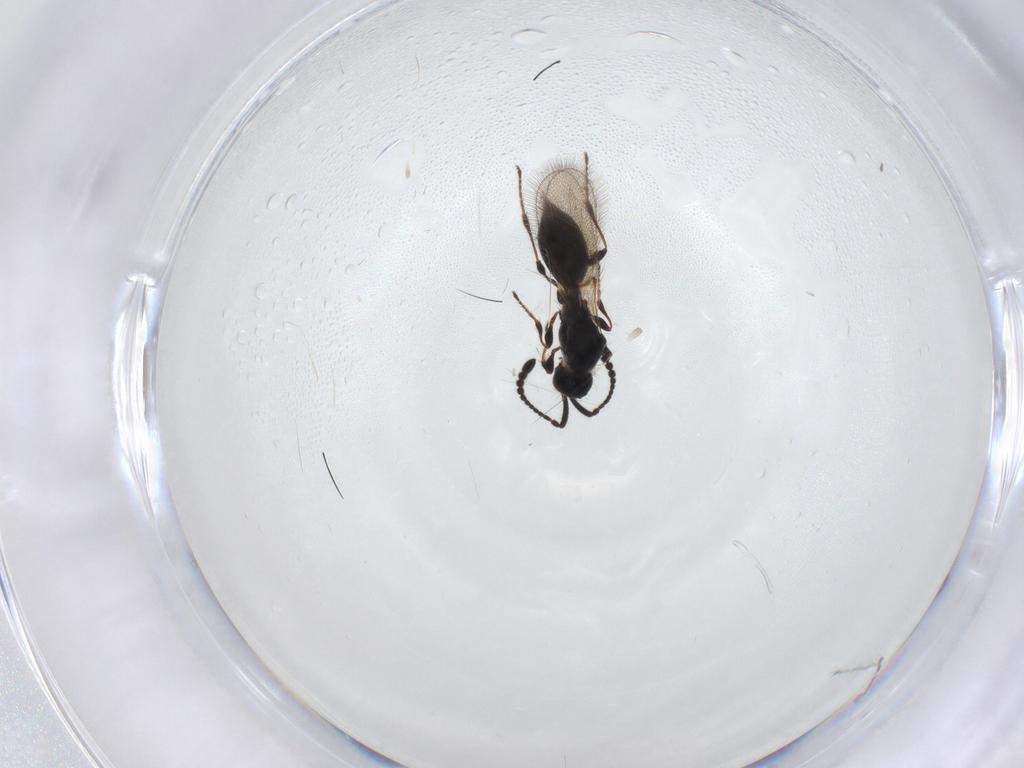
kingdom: Animalia
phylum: Arthropoda
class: Insecta
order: Hymenoptera
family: Diapriidae
